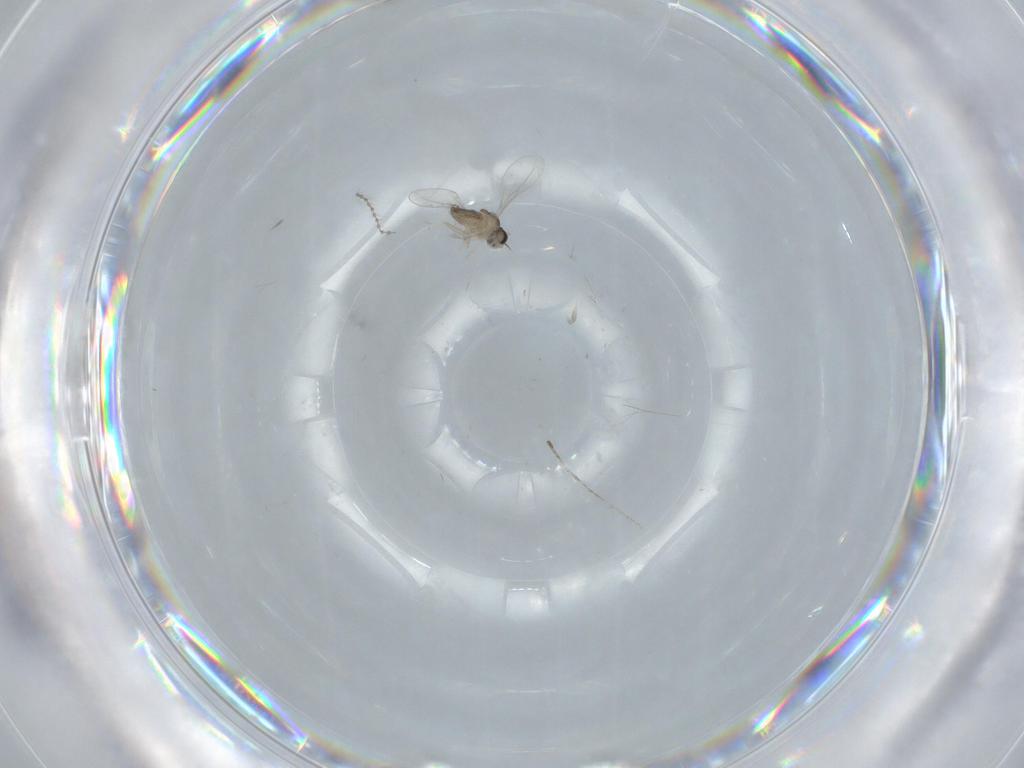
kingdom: Animalia
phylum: Arthropoda
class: Insecta
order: Diptera
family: Cecidomyiidae
